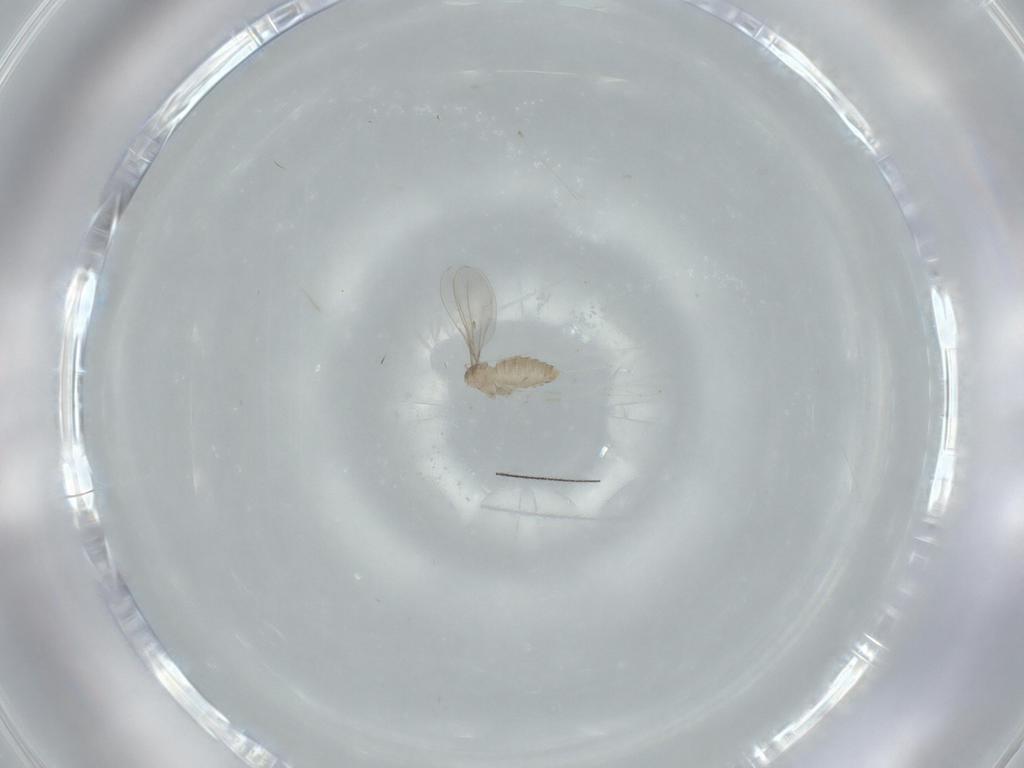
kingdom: Animalia
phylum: Arthropoda
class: Insecta
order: Diptera
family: Cecidomyiidae
